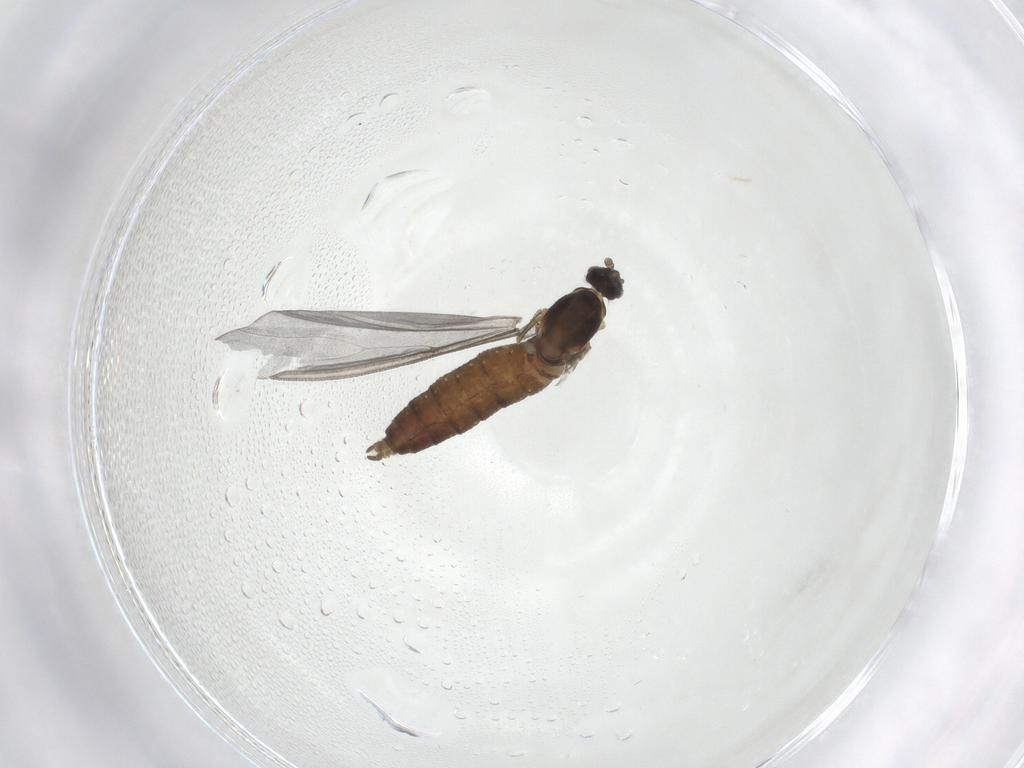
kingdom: Animalia
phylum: Arthropoda
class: Insecta
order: Diptera
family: Cecidomyiidae
